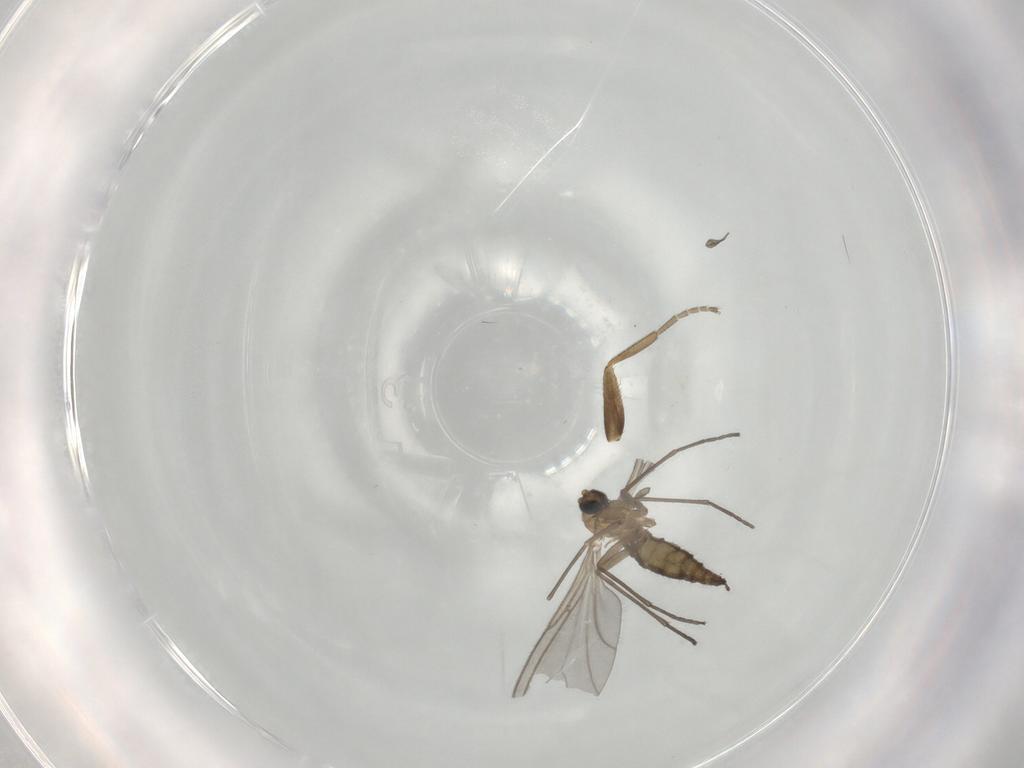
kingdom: Animalia
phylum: Arthropoda
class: Insecta
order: Diptera
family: Sciaridae
